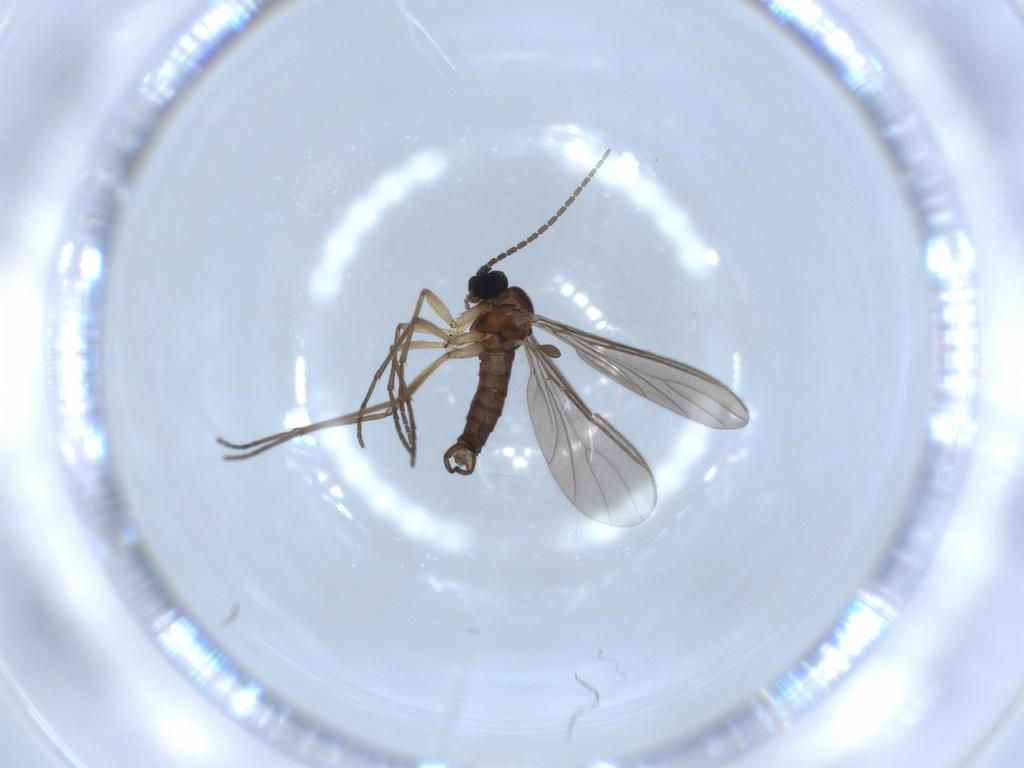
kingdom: Animalia
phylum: Arthropoda
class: Insecta
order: Diptera
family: Sciaridae
